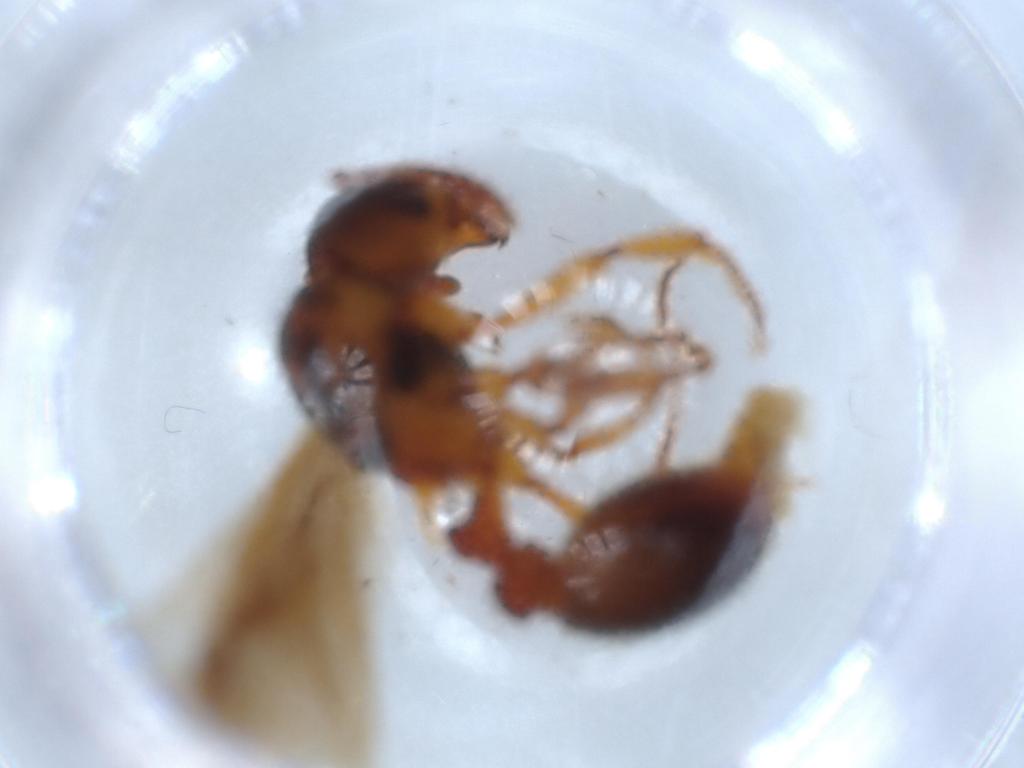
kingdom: Animalia
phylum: Arthropoda
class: Insecta
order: Hymenoptera
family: Formicidae
